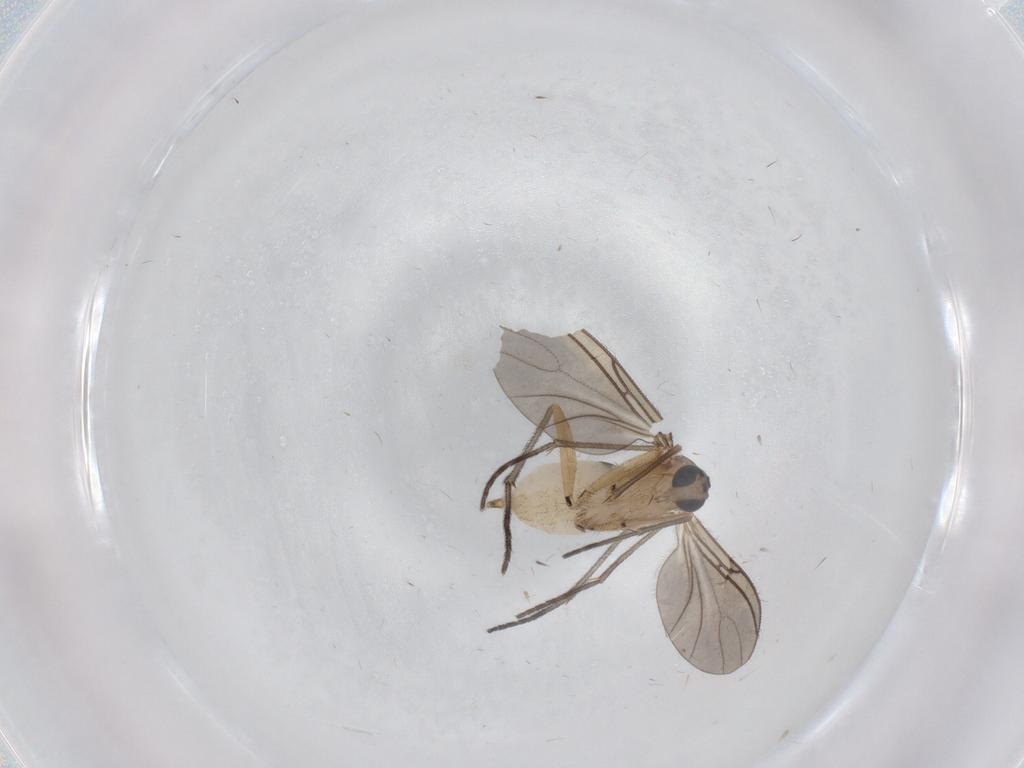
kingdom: Animalia
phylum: Arthropoda
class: Insecta
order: Diptera
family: Sciaridae
